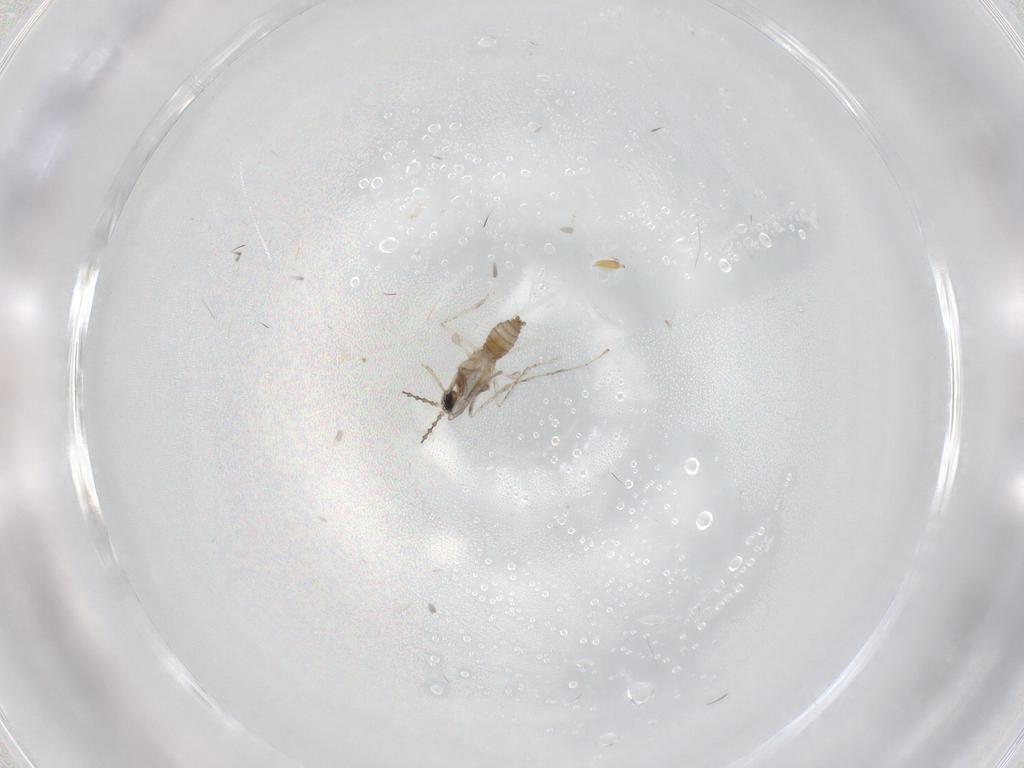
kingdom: Animalia
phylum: Arthropoda
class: Insecta
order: Diptera
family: Cecidomyiidae
